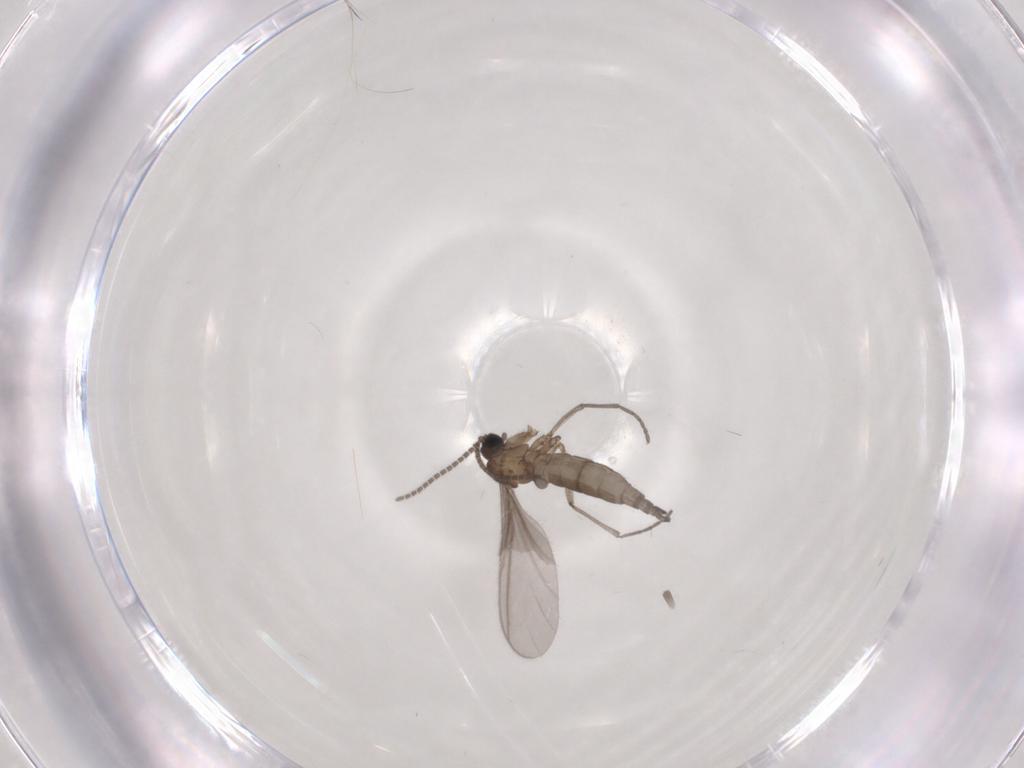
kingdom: Animalia
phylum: Arthropoda
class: Insecta
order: Diptera
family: Sciaridae
